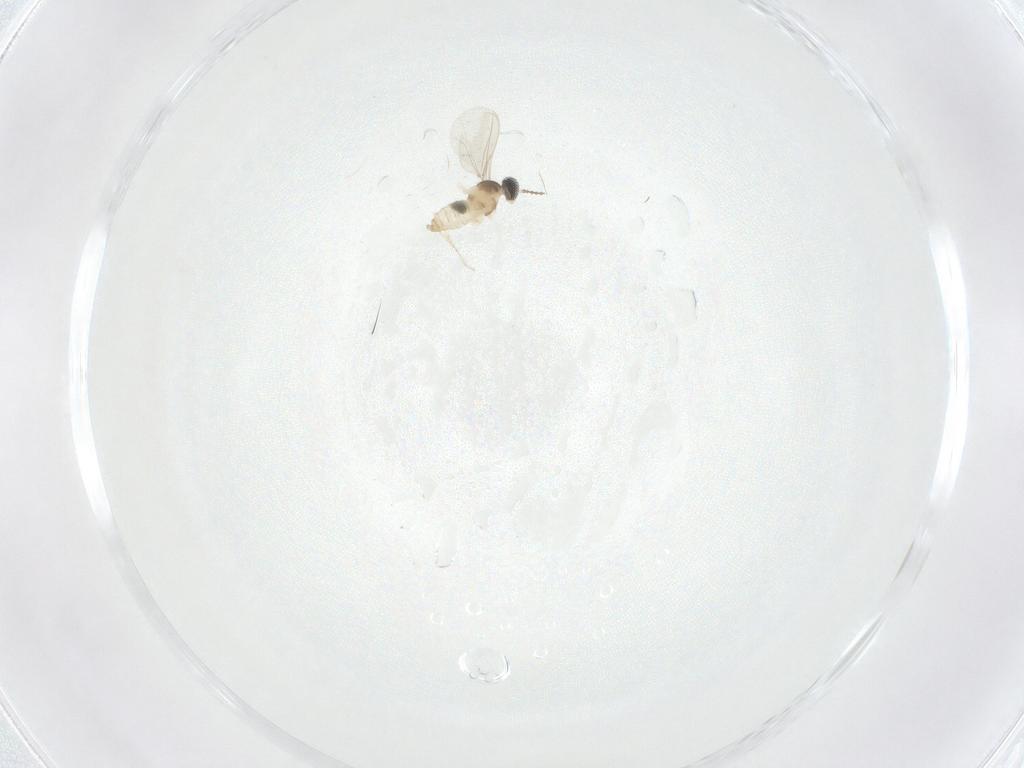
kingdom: Animalia
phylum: Arthropoda
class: Insecta
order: Diptera
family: Cecidomyiidae
